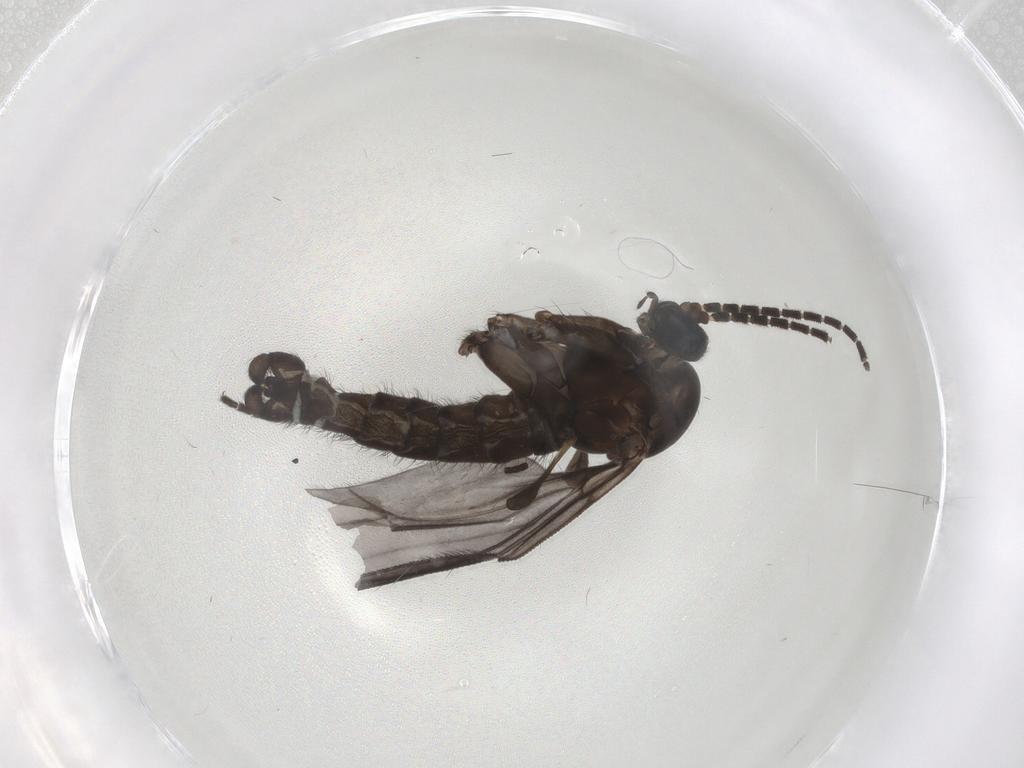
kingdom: Animalia
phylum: Arthropoda
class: Insecta
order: Diptera
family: Sciaridae
